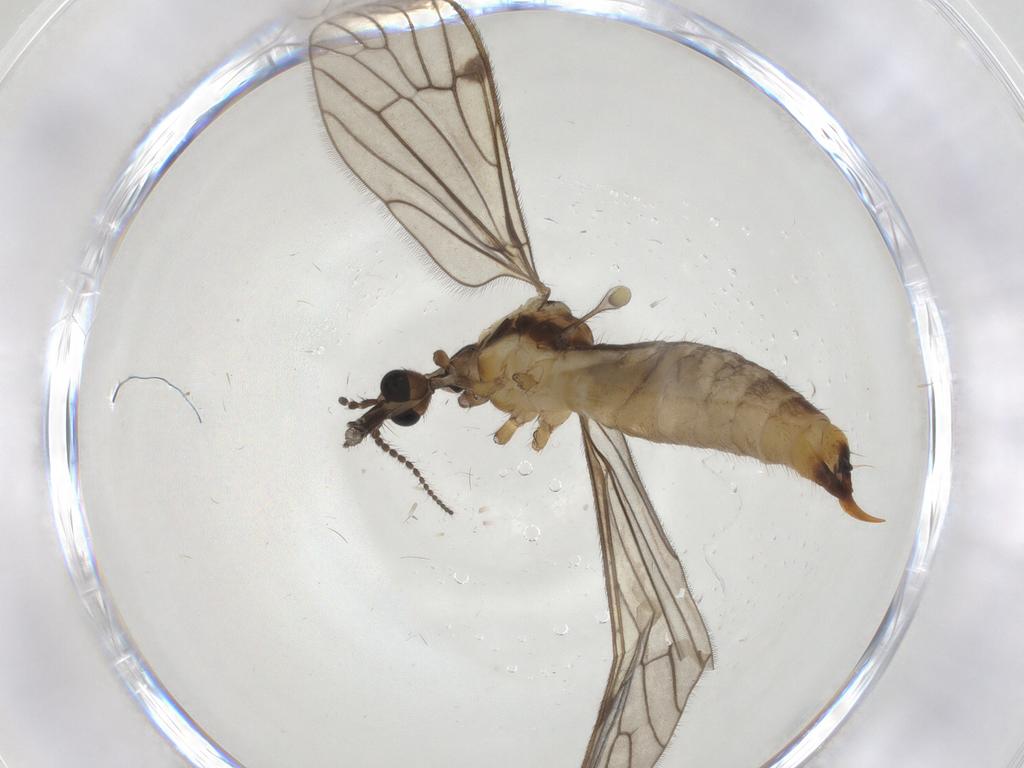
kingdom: Animalia
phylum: Arthropoda
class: Insecta
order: Diptera
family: Limoniidae
